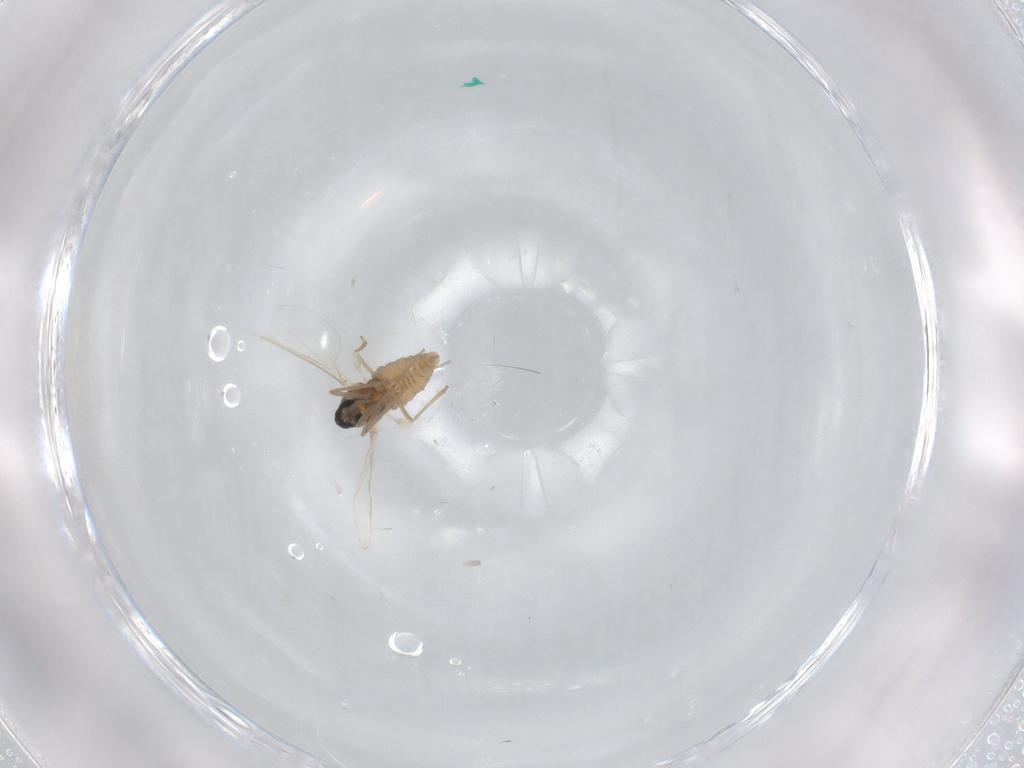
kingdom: Animalia
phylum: Arthropoda
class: Insecta
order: Diptera
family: Cecidomyiidae
